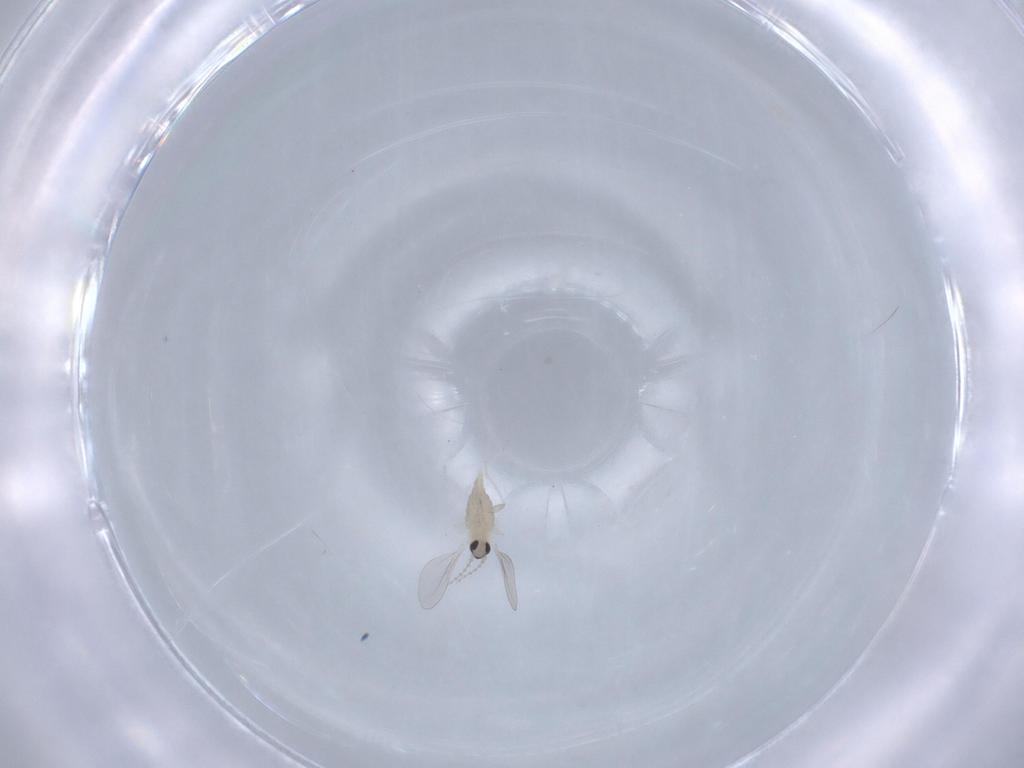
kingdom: Animalia
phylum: Arthropoda
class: Insecta
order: Diptera
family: Cecidomyiidae
